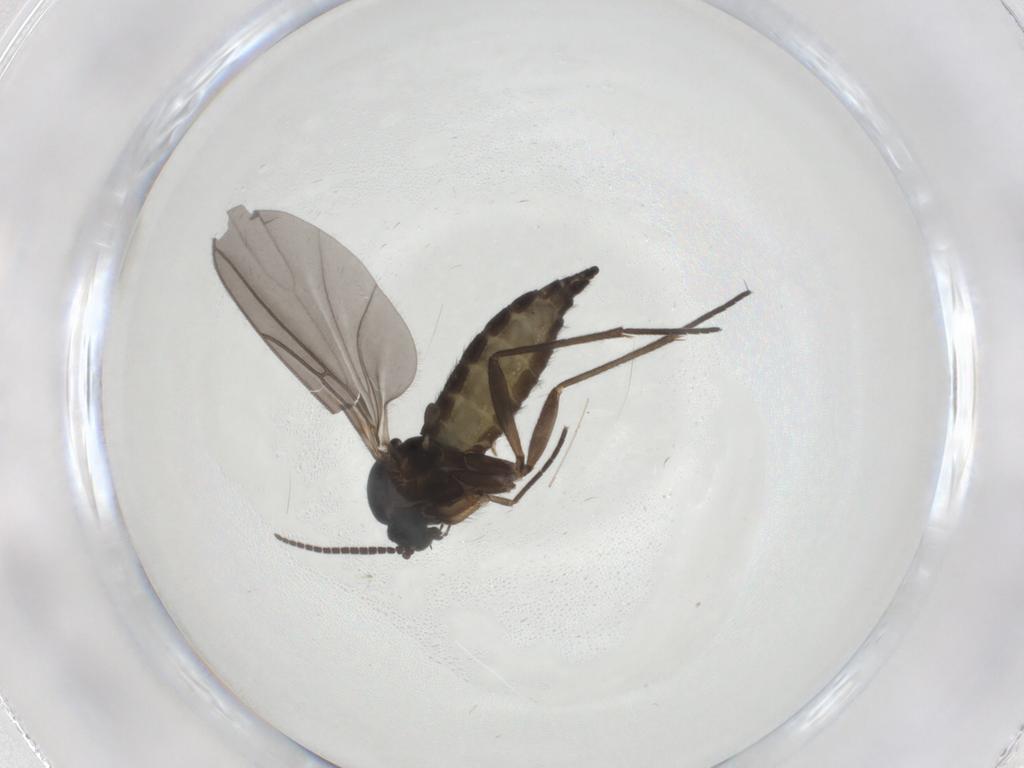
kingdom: Animalia
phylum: Arthropoda
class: Insecta
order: Diptera
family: Sciaridae
